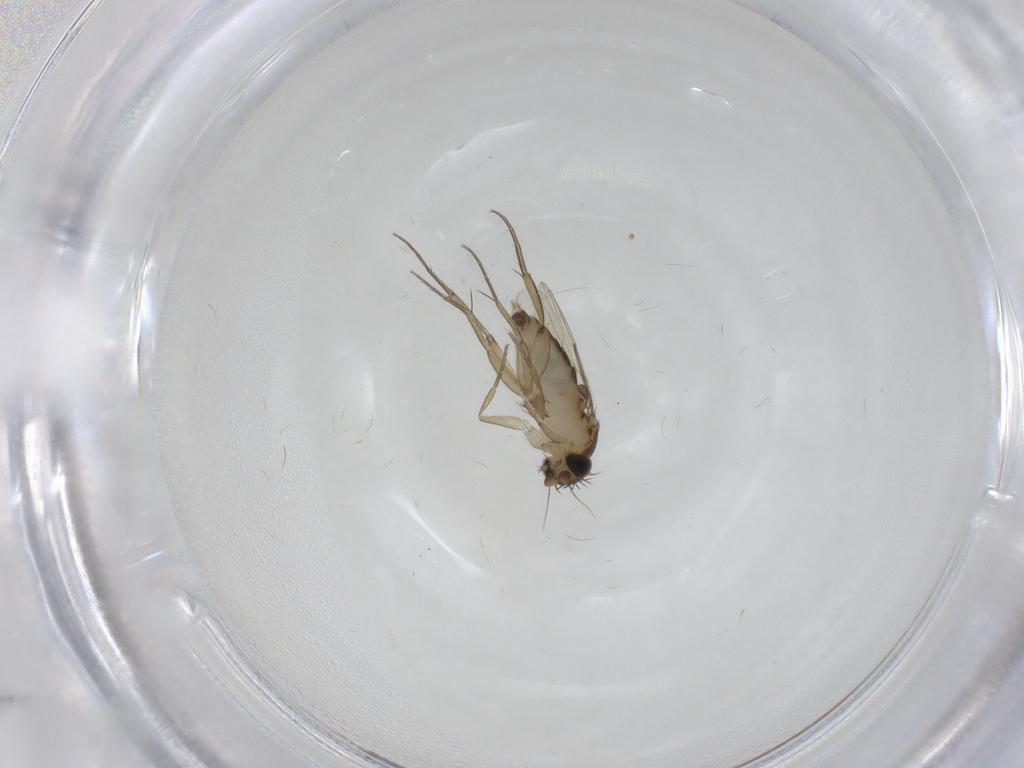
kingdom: Animalia
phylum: Arthropoda
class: Insecta
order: Diptera
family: Phoridae
